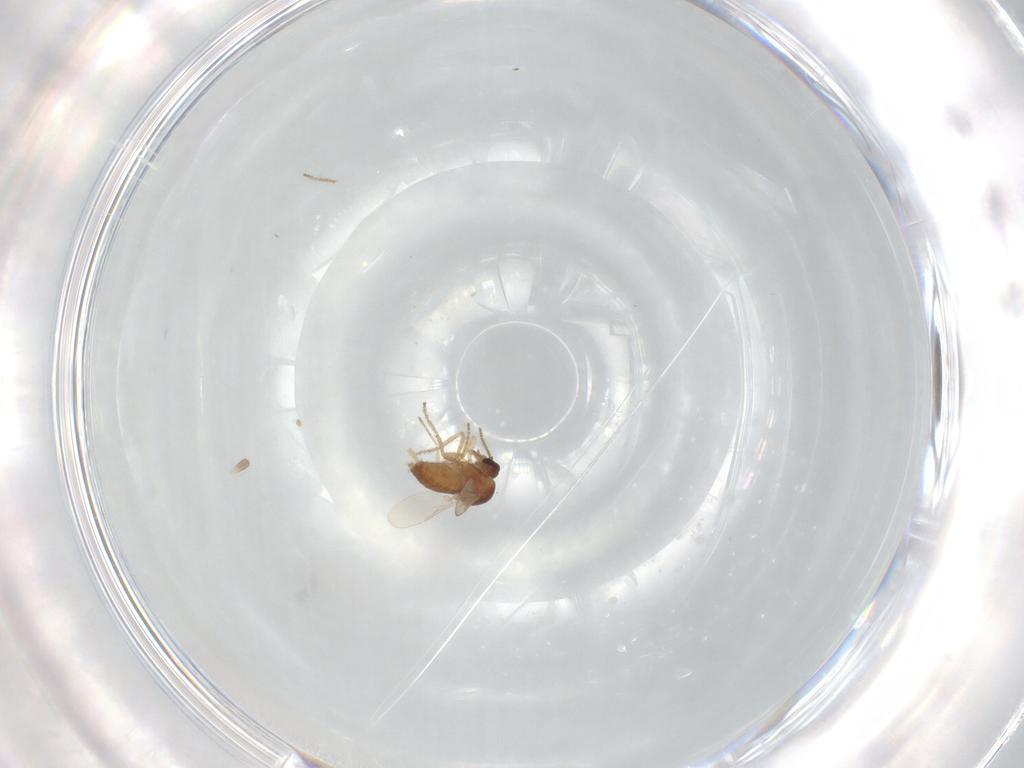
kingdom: Animalia
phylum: Arthropoda
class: Insecta
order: Diptera
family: Ceratopogonidae
